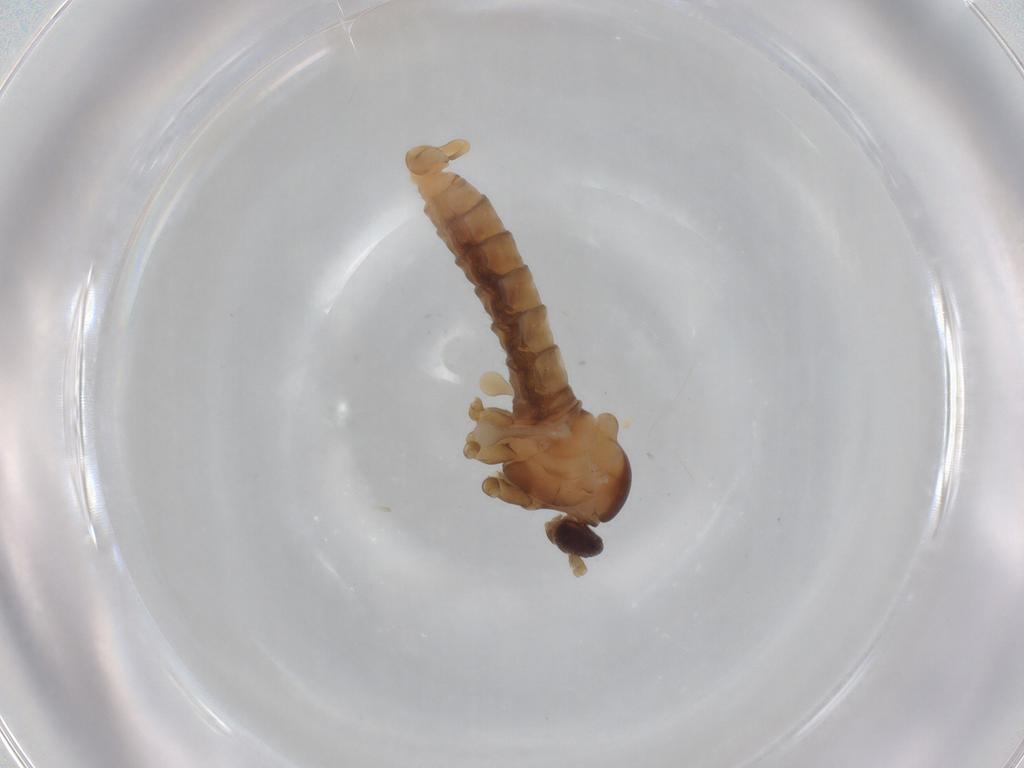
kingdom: Animalia
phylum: Arthropoda
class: Insecta
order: Diptera
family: Cecidomyiidae
